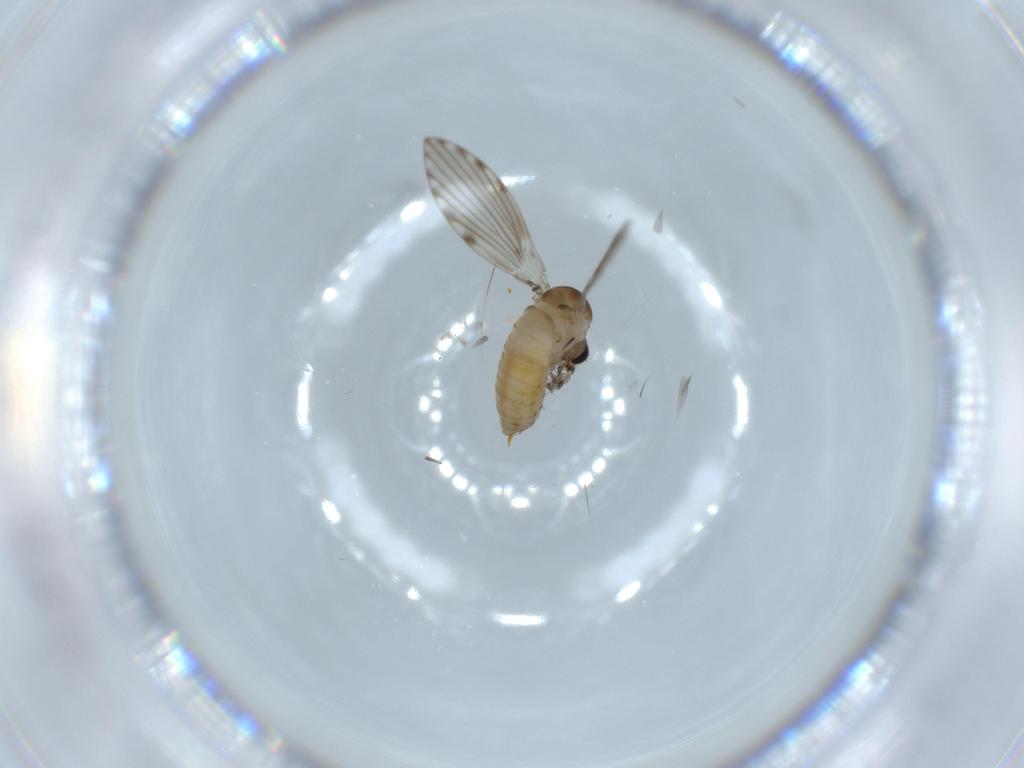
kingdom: Animalia
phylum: Arthropoda
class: Insecta
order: Diptera
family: Psychodidae
